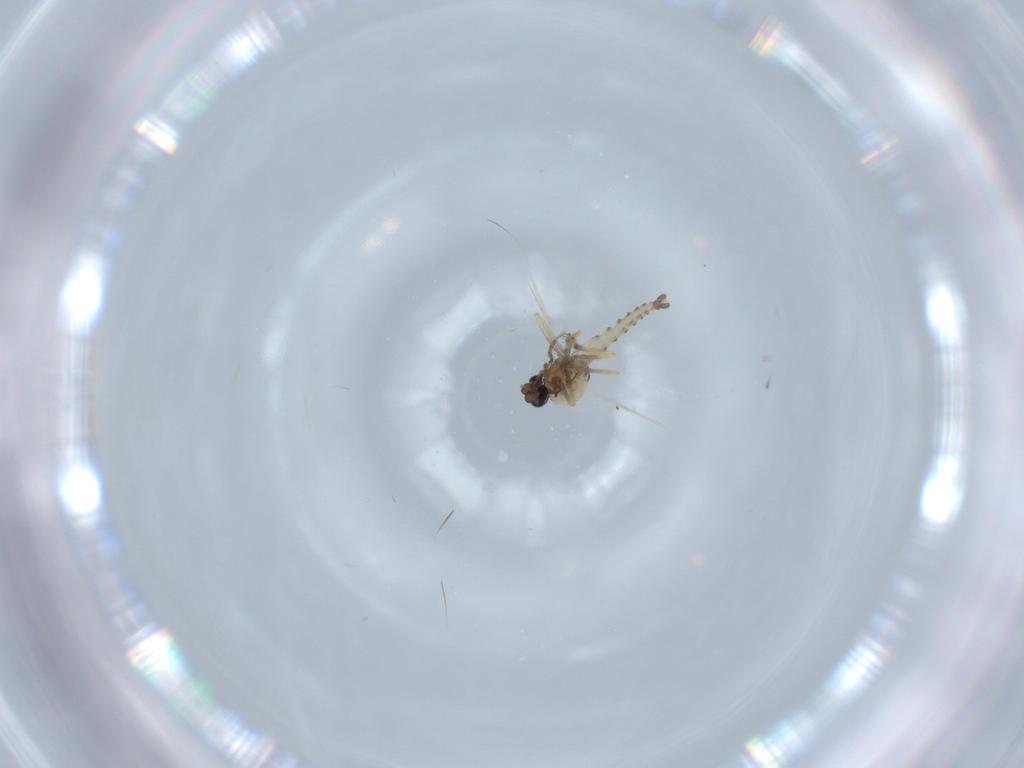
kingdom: Animalia
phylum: Arthropoda
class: Insecta
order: Diptera
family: Ceratopogonidae
